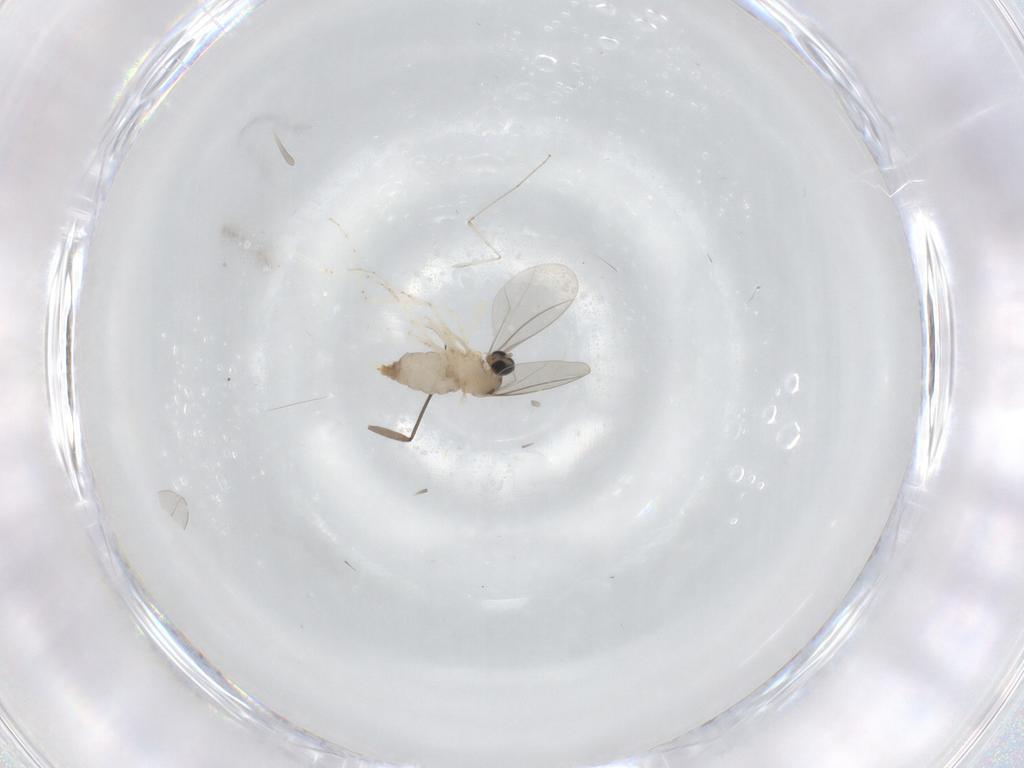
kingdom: Animalia
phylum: Arthropoda
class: Insecta
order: Diptera
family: Cecidomyiidae
